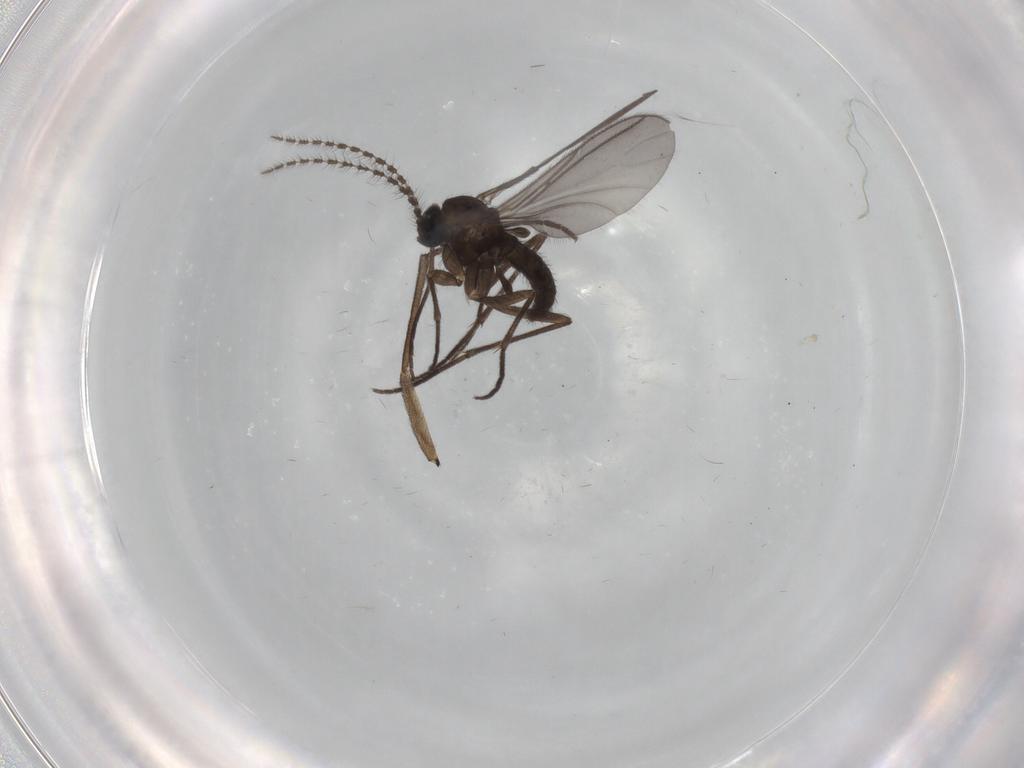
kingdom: Animalia
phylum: Arthropoda
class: Insecta
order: Diptera
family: Sciaridae
